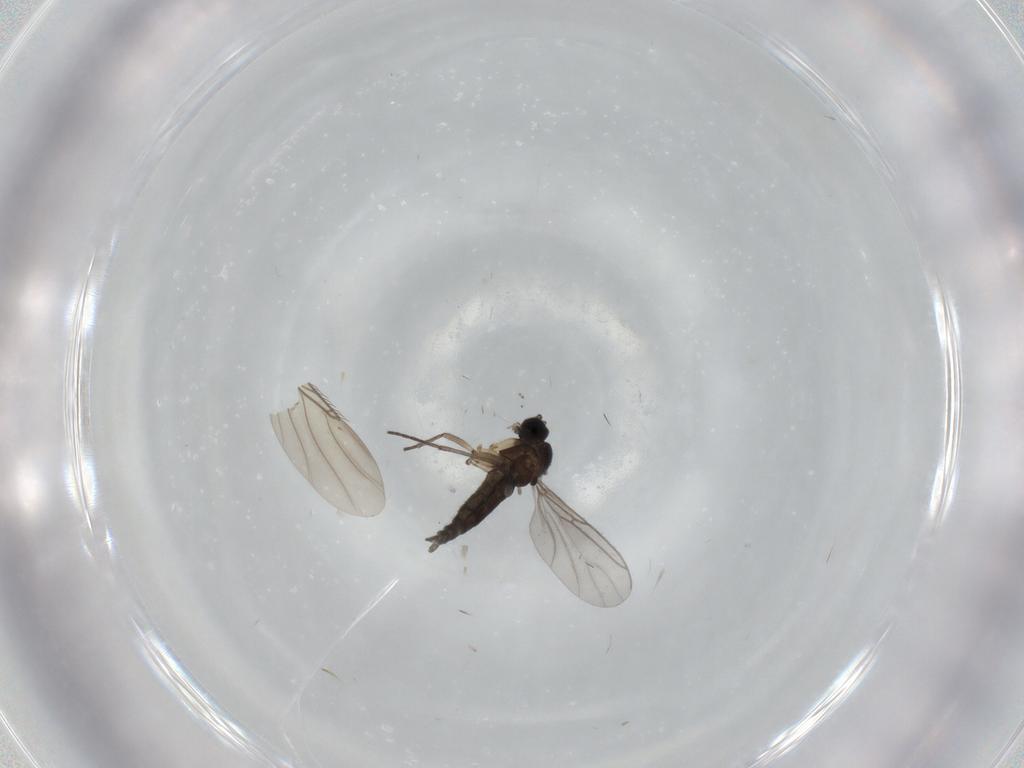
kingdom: Animalia
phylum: Arthropoda
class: Insecta
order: Diptera
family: Sciaridae
